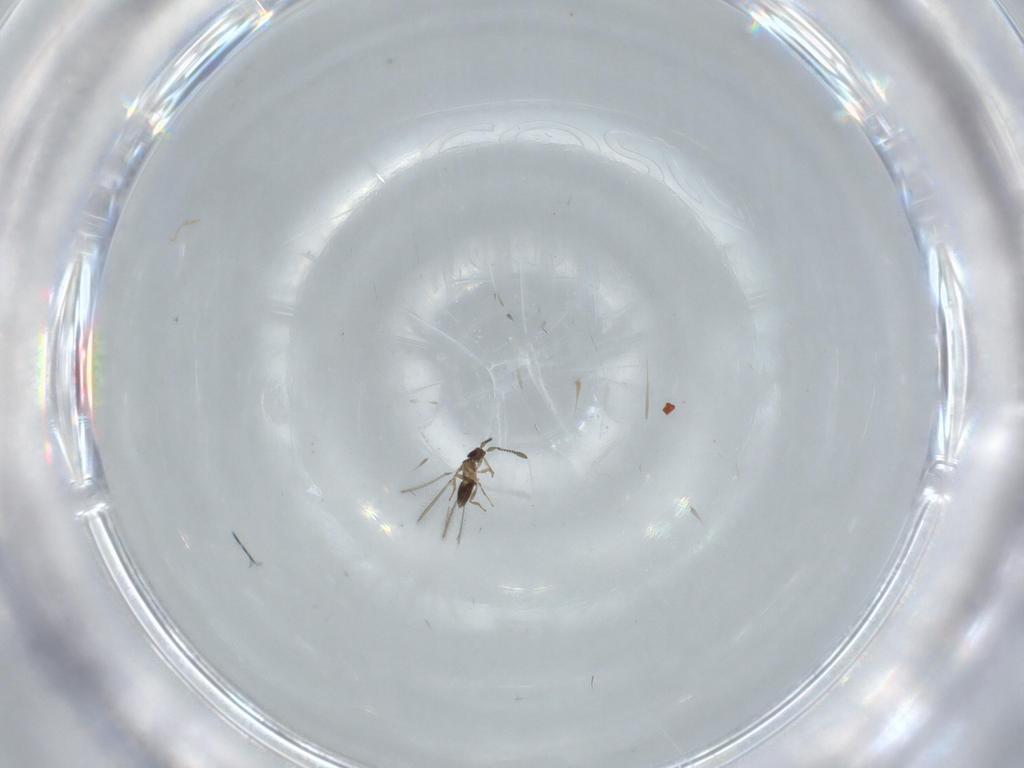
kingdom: Animalia
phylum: Arthropoda
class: Insecta
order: Hymenoptera
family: Mymaridae
